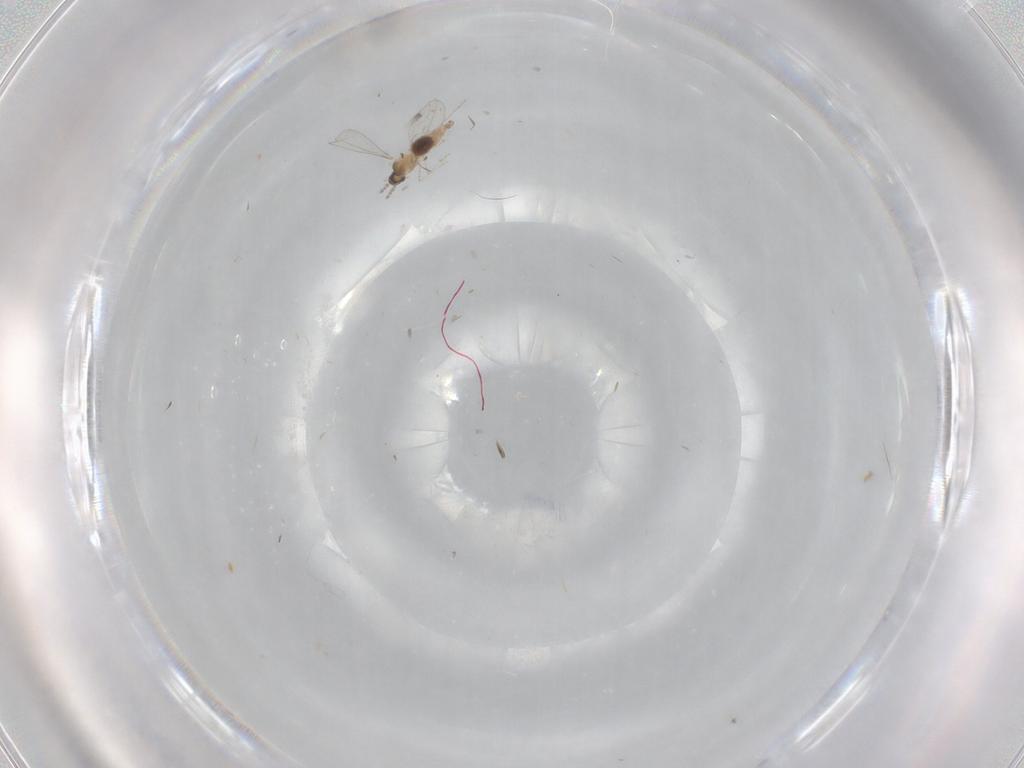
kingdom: Animalia
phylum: Arthropoda
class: Insecta
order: Diptera
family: Cecidomyiidae
